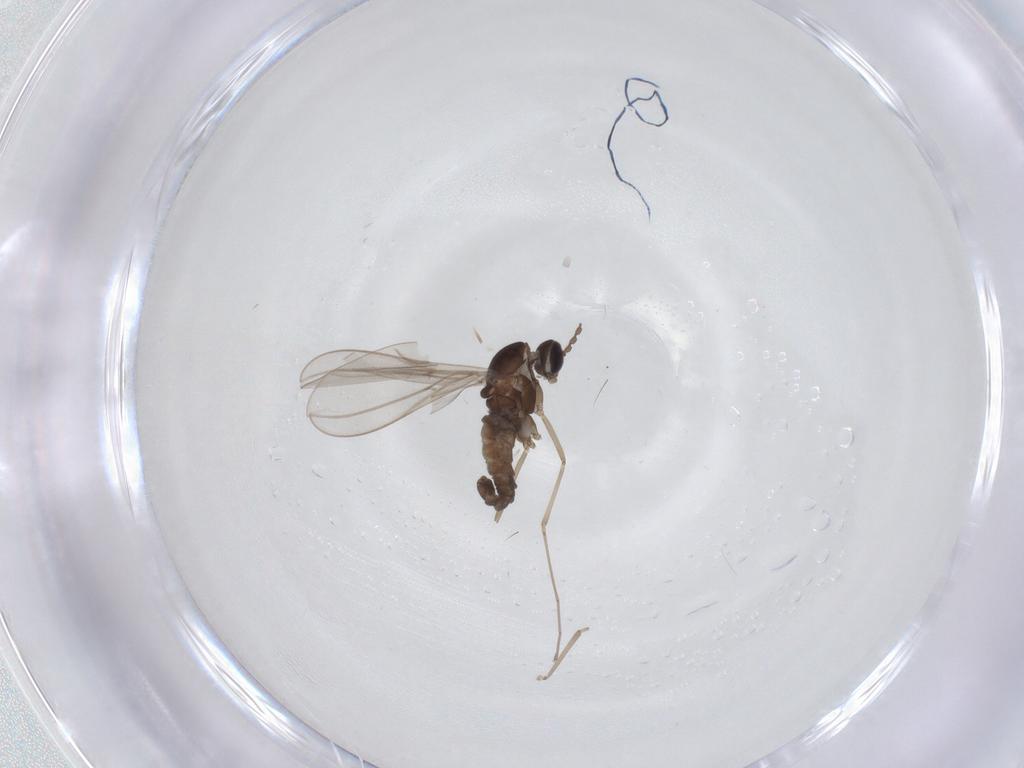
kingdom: Animalia
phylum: Arthropoda
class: Insecta
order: Diptera
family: Cecidomyiidae
